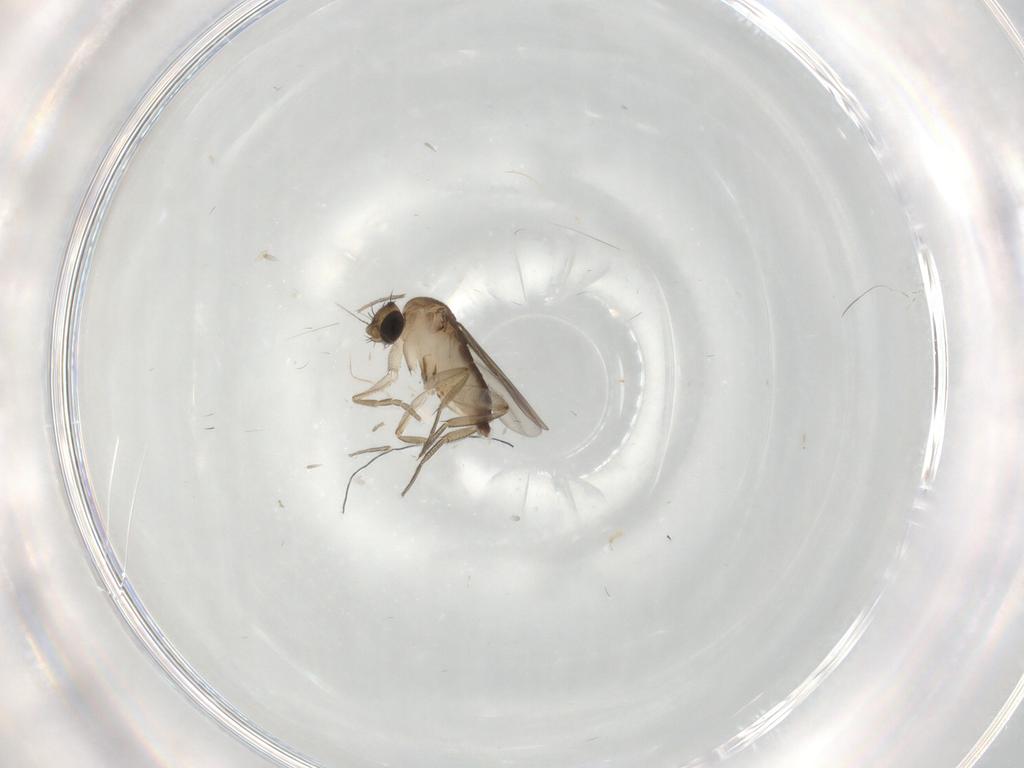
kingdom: Animalia
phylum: Arthropoda
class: Insecta
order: Diptera
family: Phoridae
